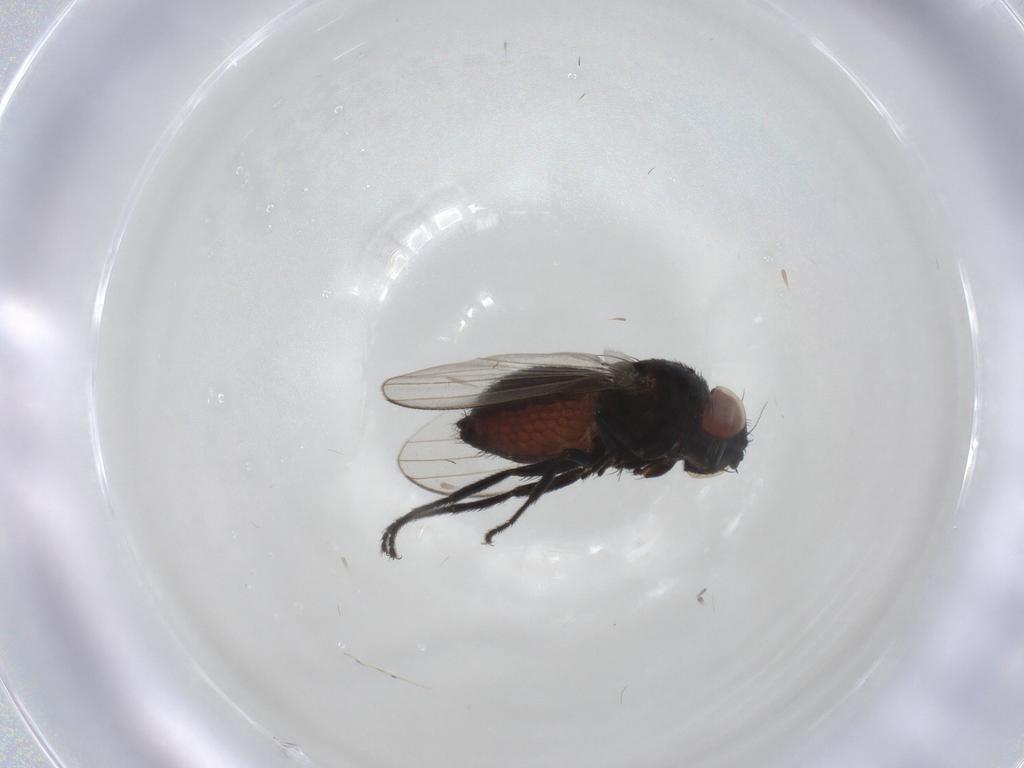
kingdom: Animalia
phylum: Arthropoda
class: Insecta
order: Diptera
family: Milichiidae
